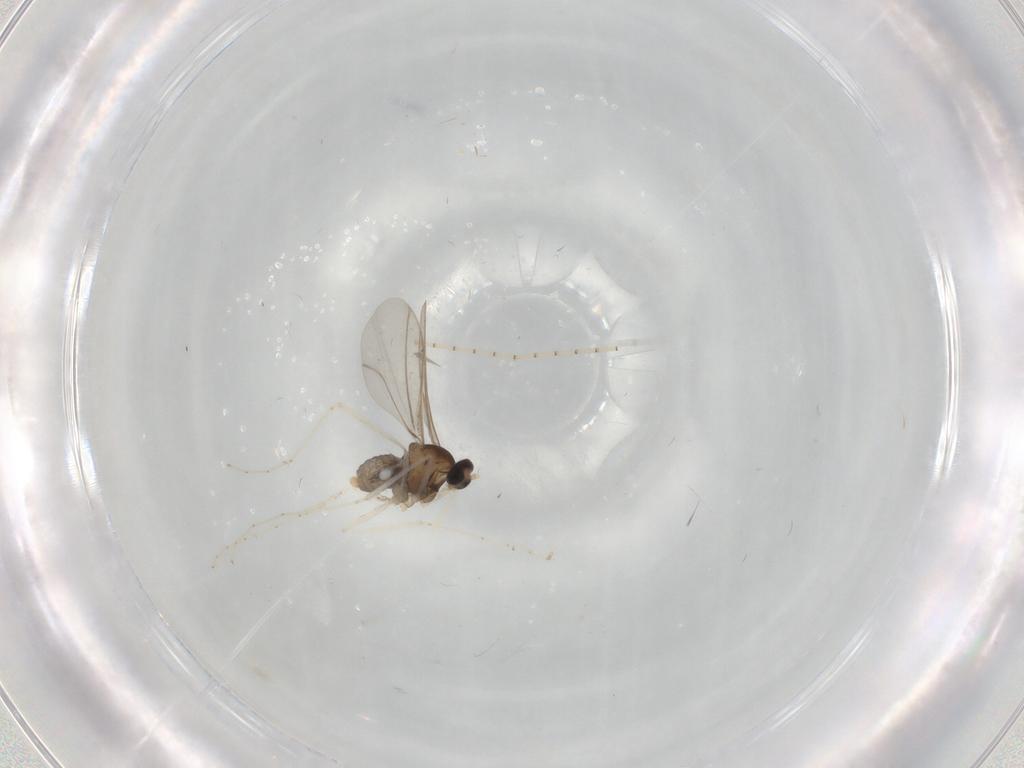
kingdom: Animalia
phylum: Arthropoda
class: Insecta
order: Diptera
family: Cecidomyiidae
